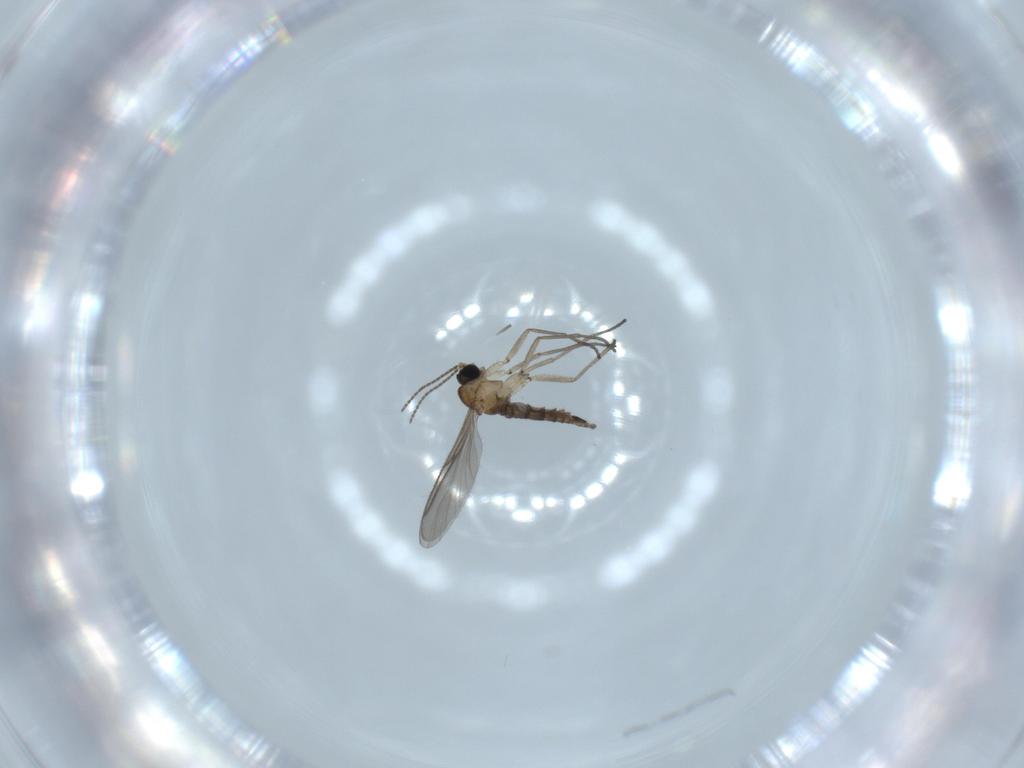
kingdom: Animalia
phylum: Arthropoda
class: Insecta
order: Diptera
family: Sciaridae
